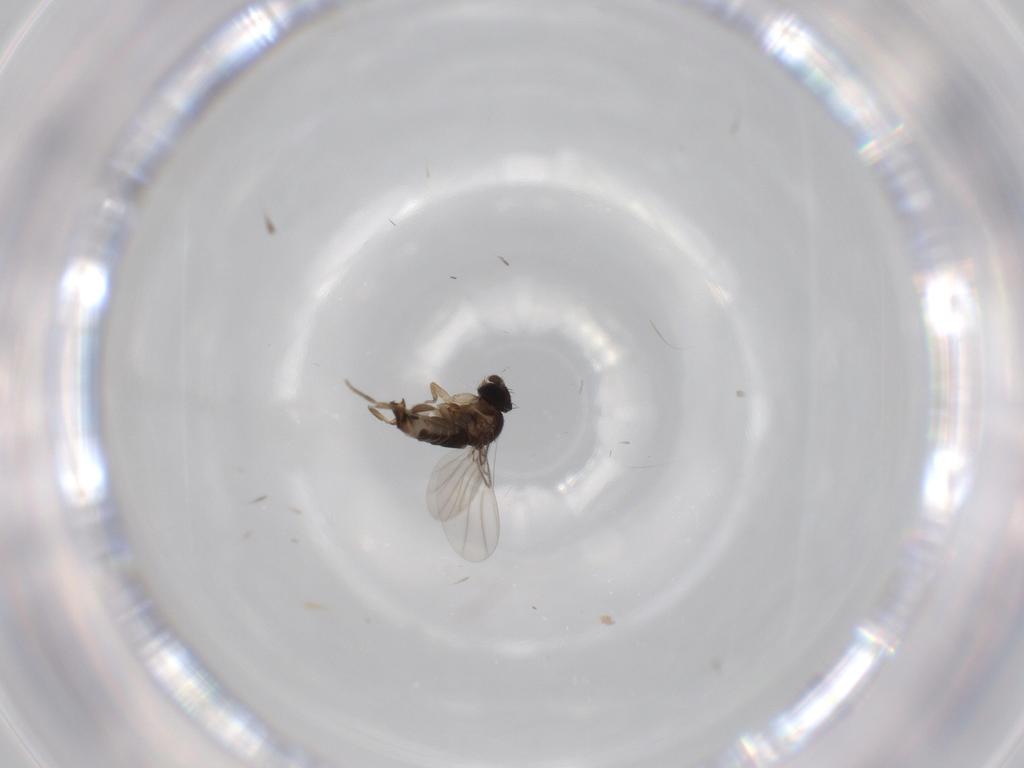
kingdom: Animalia
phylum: Arthropoda
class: Insecta
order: Diptera
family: Phoridae
